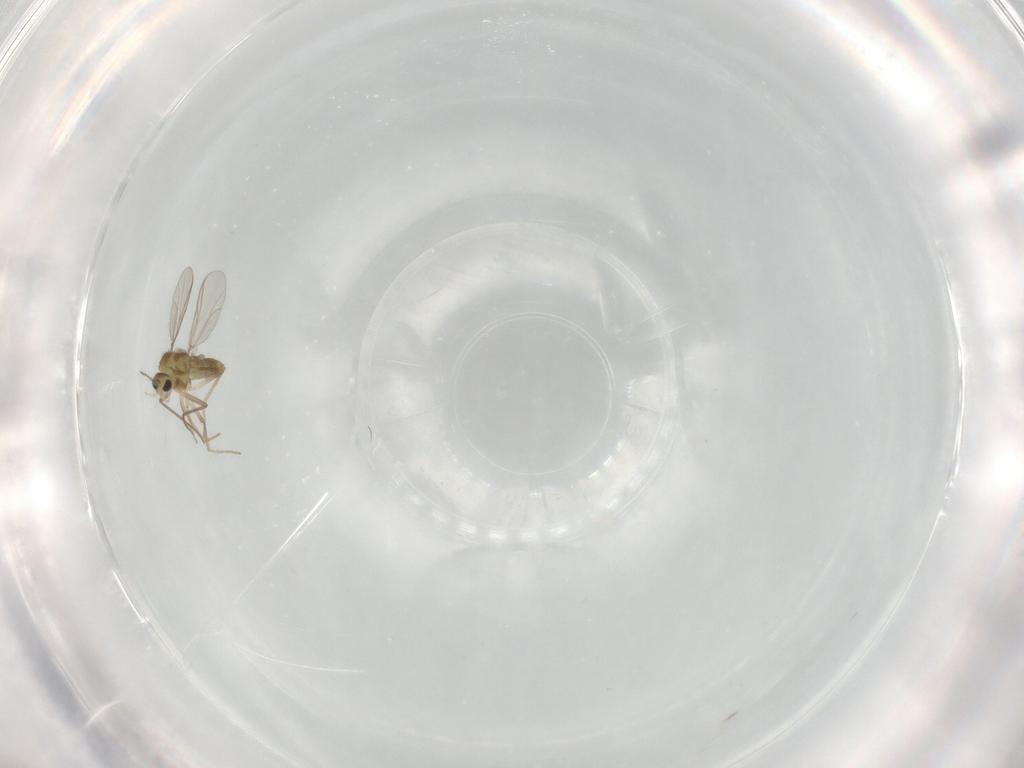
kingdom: Animalia
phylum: Arthropoda
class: Insecta
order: Diptera
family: Chironomidae
